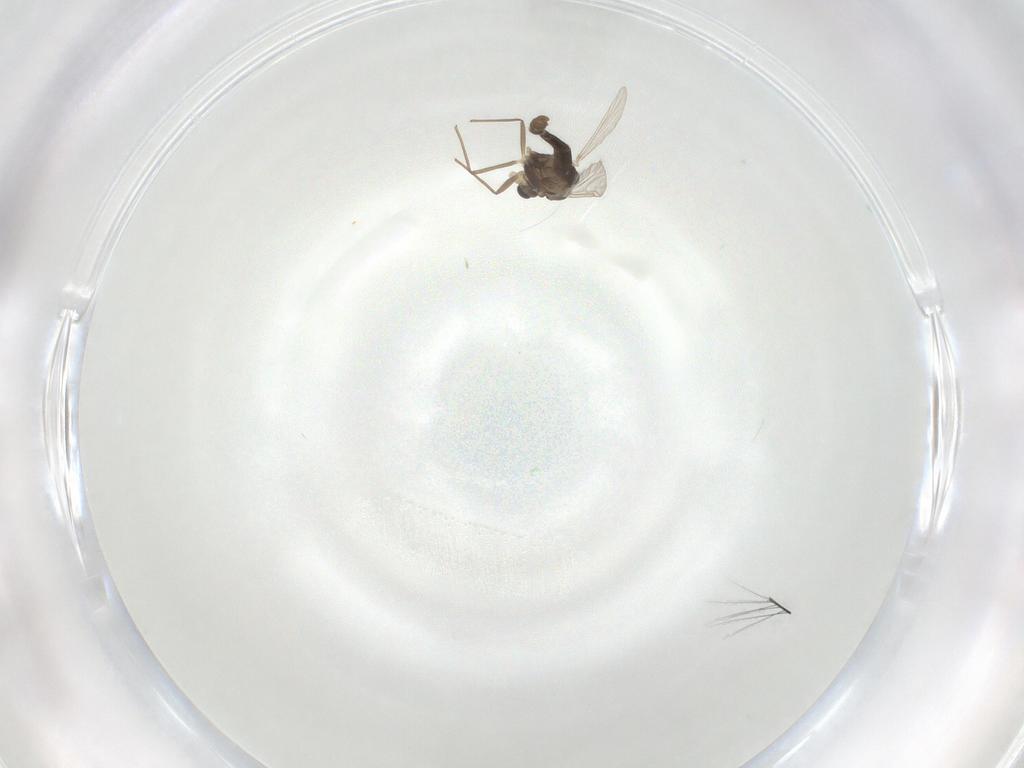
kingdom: Animalia
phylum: Arthropoda
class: Insecta
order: Diptera
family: Chironomidae
